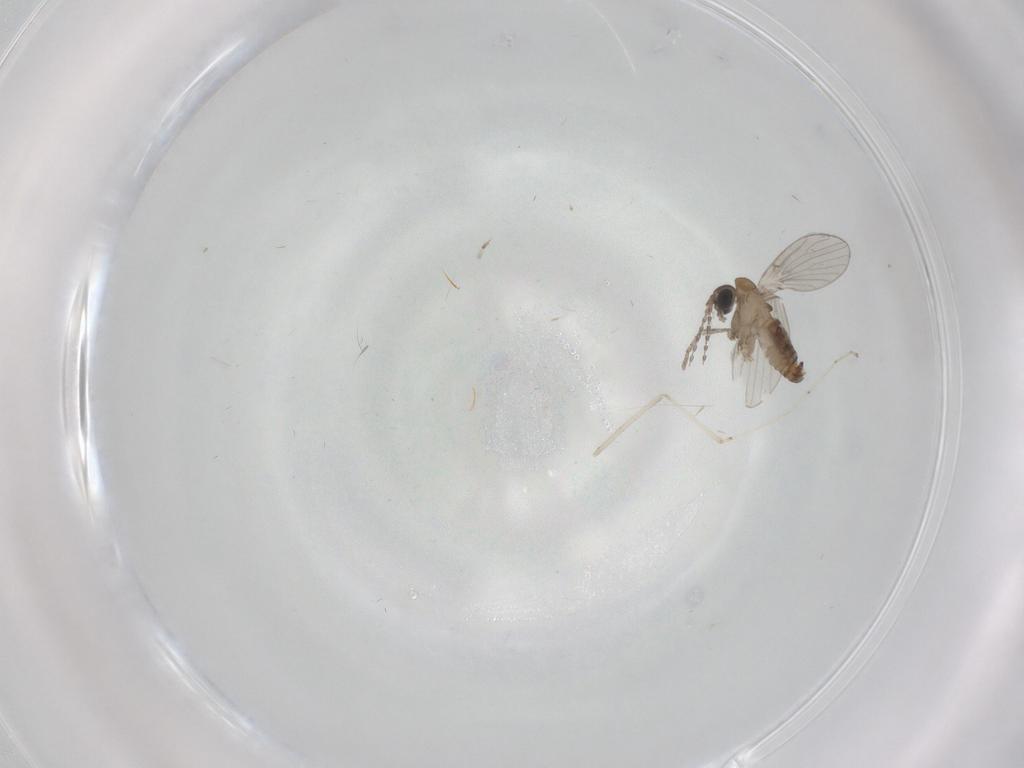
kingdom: Animalia
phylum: Arthropoda
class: Insecta
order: Diptera
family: Cecidomyiidae
